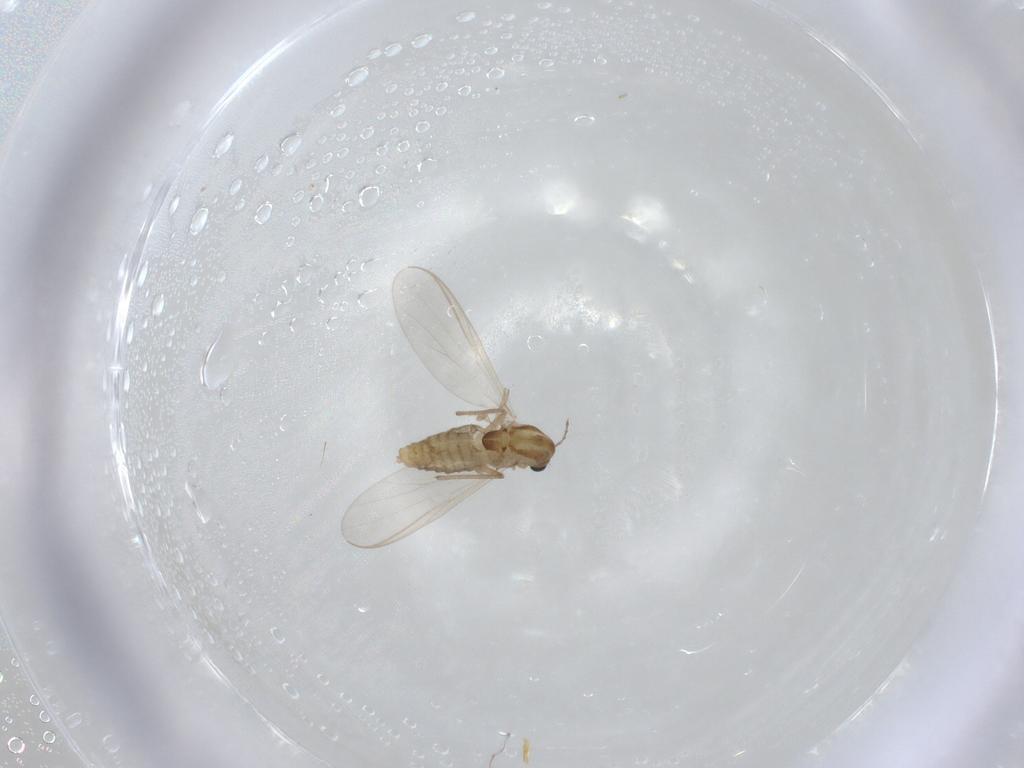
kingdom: Animalia
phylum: Arthropoda
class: Insecta
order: Diptera
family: Chironomidae
